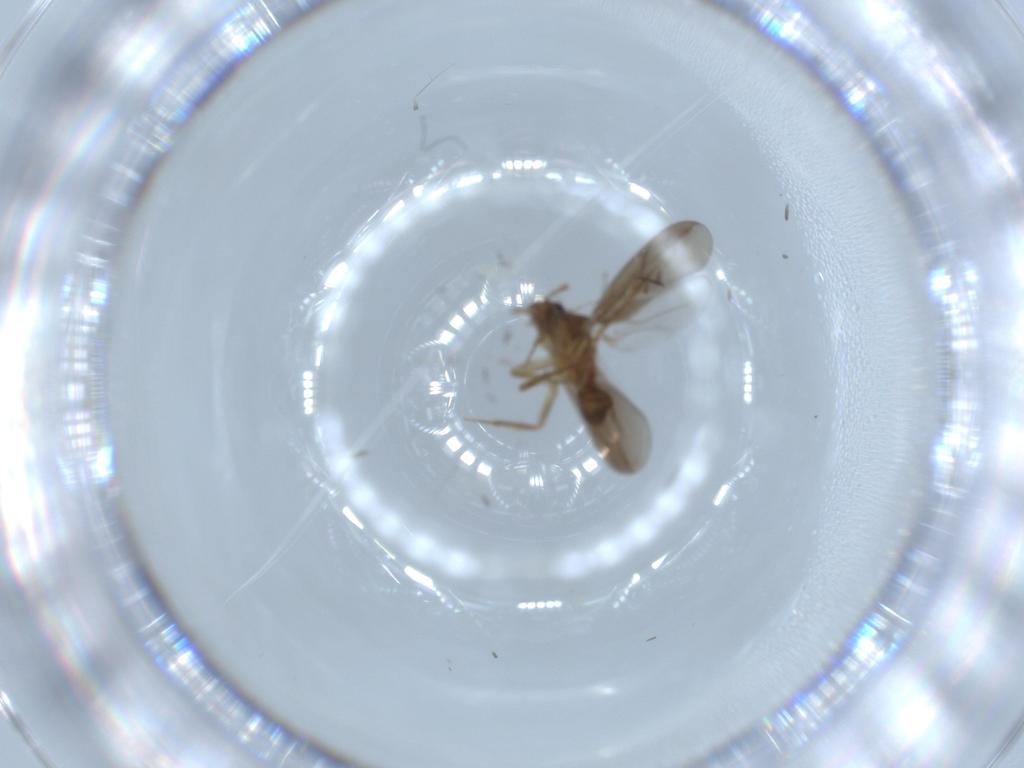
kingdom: Animalia
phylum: Arthropoda
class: Insecta
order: Hemiptera
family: Ceratocombidae
